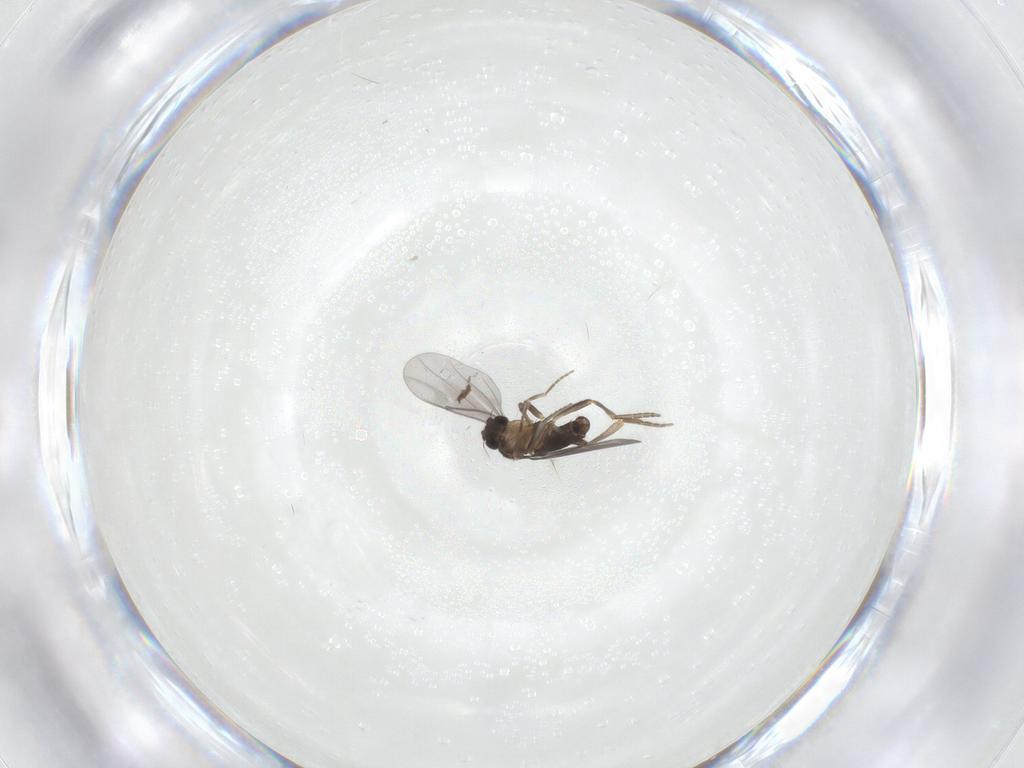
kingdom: Animalia
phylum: Arthropoda
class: Insecta
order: Diptera
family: Chironomidae
